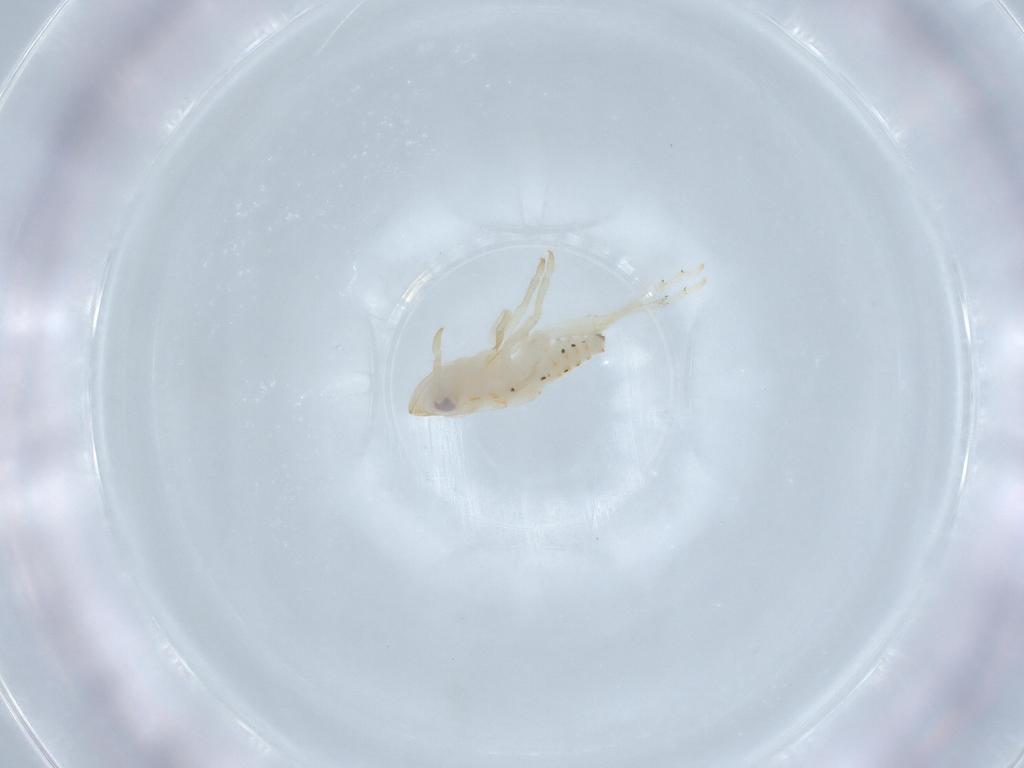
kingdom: Animalia
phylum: Arthropoda
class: Insecta
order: Hemiptera
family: Tropiduchidae
